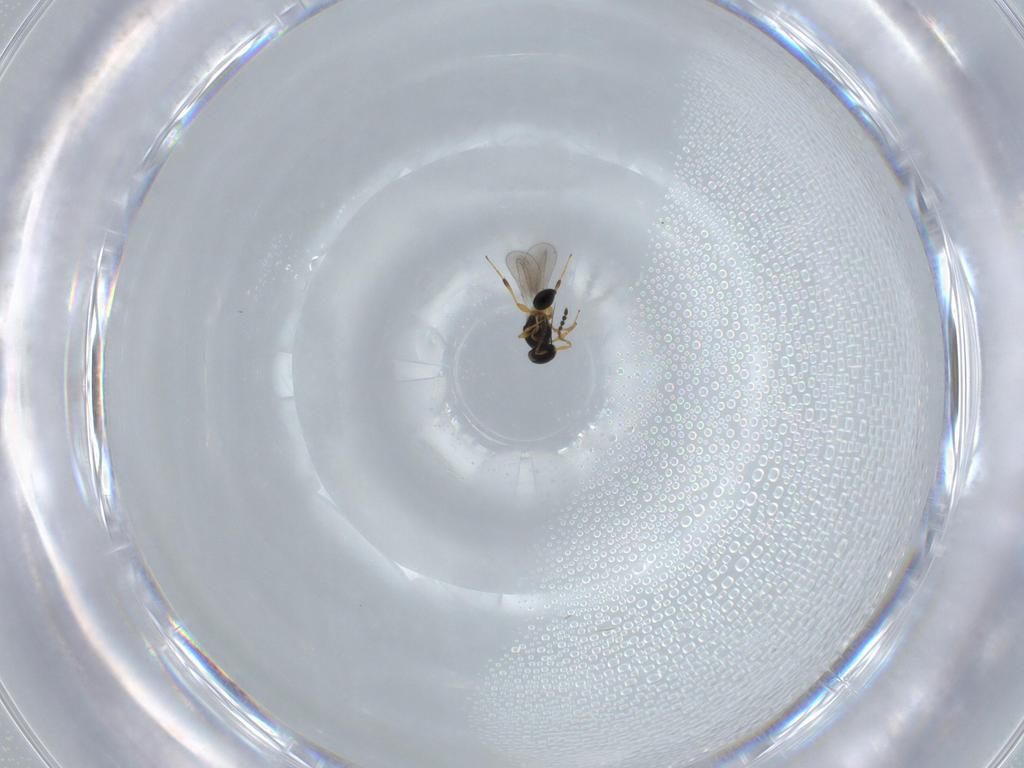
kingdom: Animalia
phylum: Arthropoda
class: Insecta
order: Hymenoptera
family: Platygastridae
